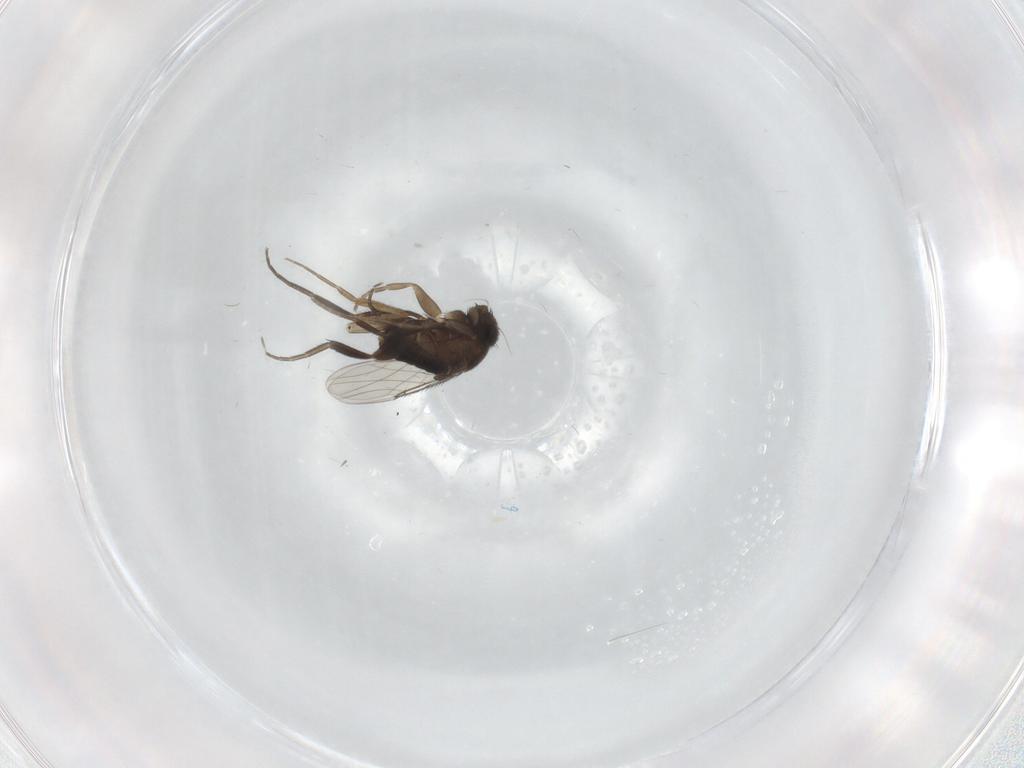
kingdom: Animalia
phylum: Arthropoda
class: Insecta
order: Diptera
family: Phoridae
